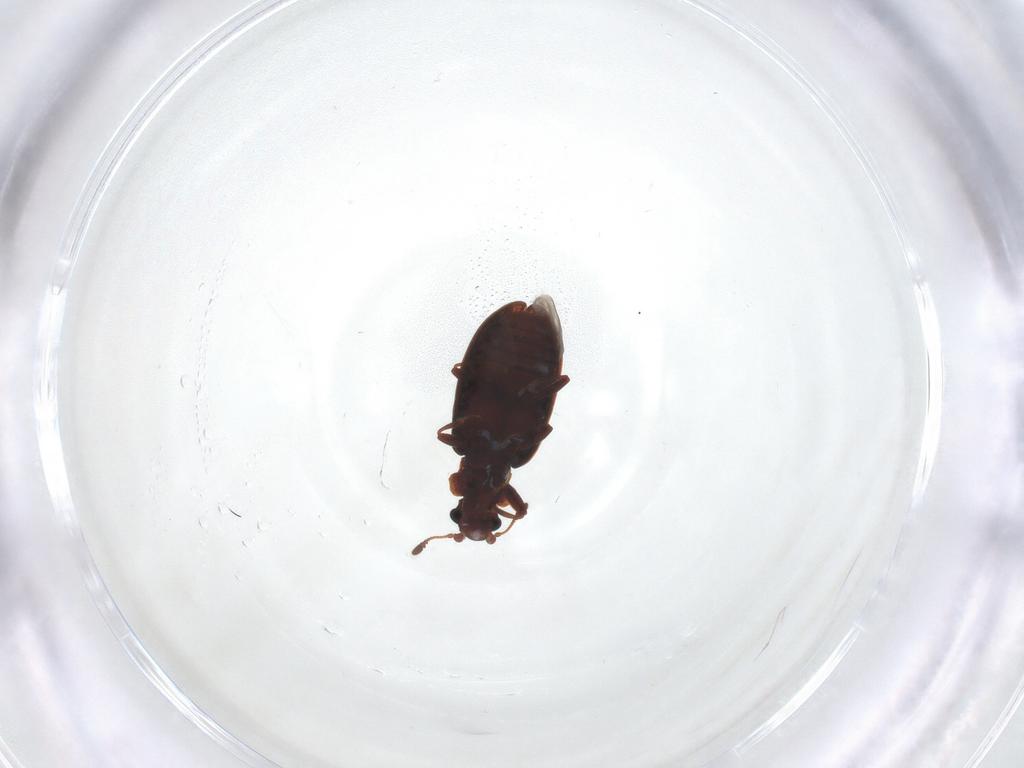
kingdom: Animalia
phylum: Arthropoda
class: Insecta
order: Coleoptera
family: Latridiidae
